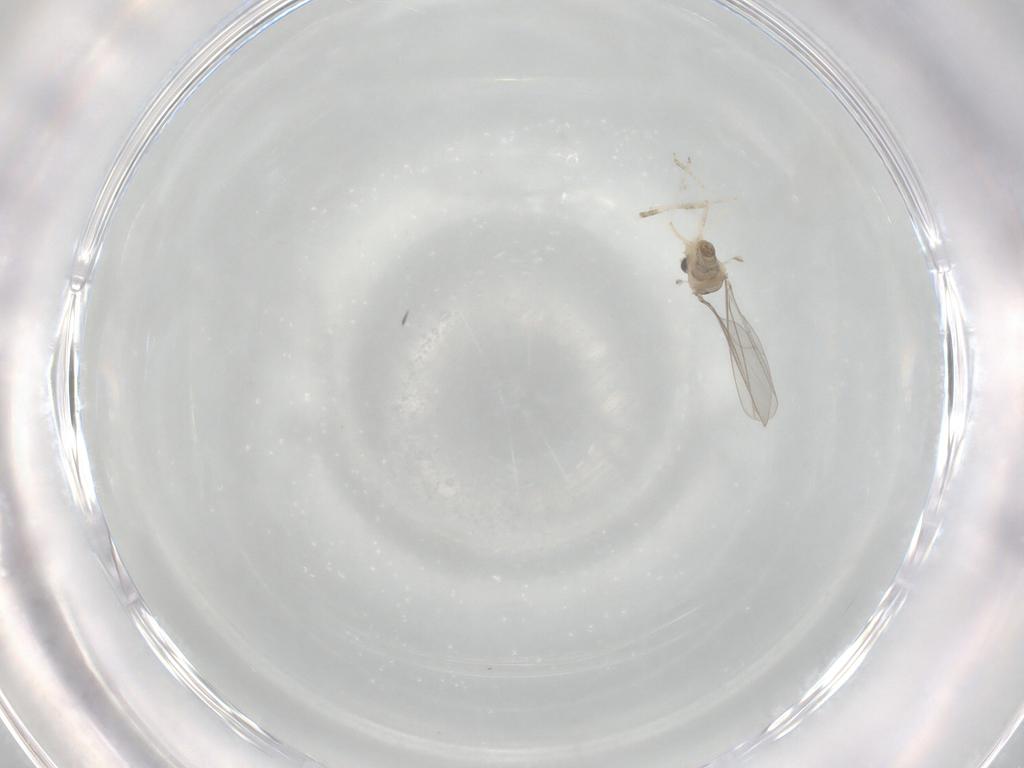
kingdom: Animalia
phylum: Arthropoda
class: Insecta
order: Diptera
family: Cecidomyiidae
